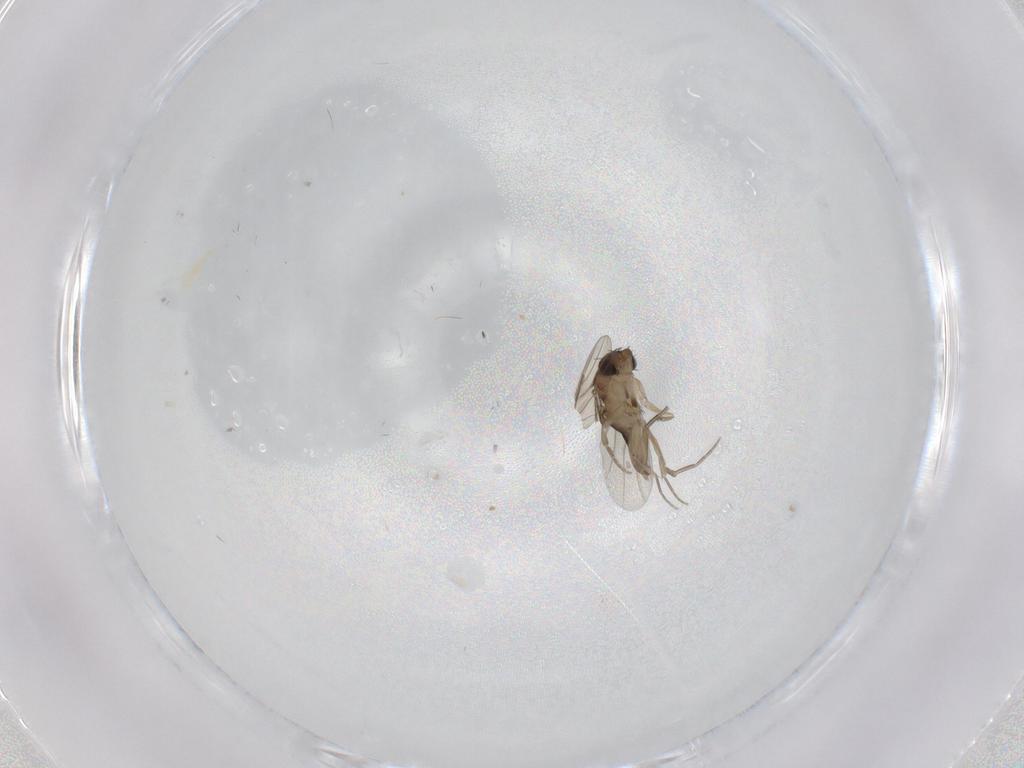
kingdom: Animalia
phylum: Arthropoda
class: Insecta
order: Diptera
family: Phoridae
